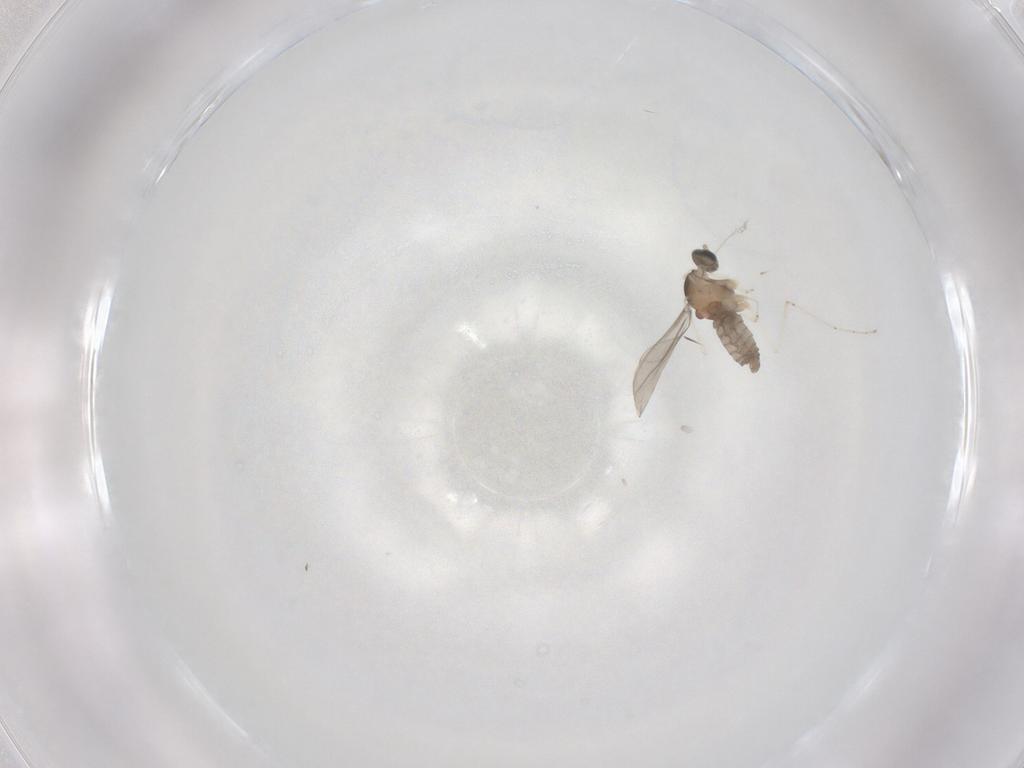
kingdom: Animalia
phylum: Arthropoda
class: Insecta
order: Diptera
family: Cecidomyiidae
